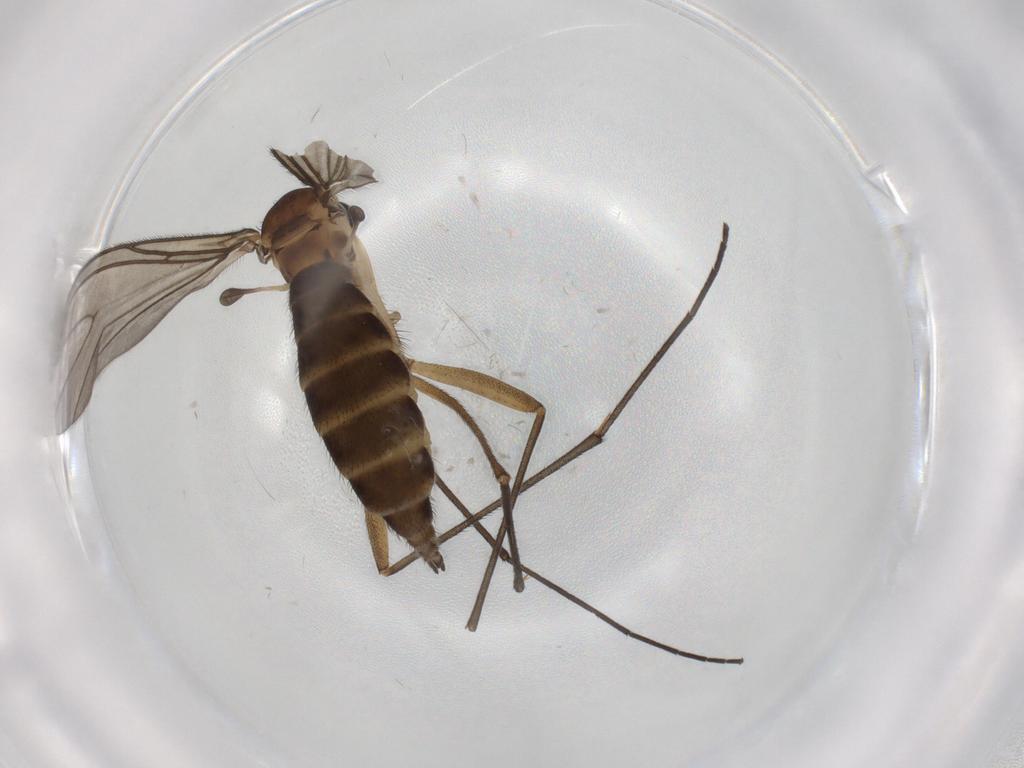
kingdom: Animalia
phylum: Arthropoda
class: Insecta
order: Diptera
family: Sciaridae
